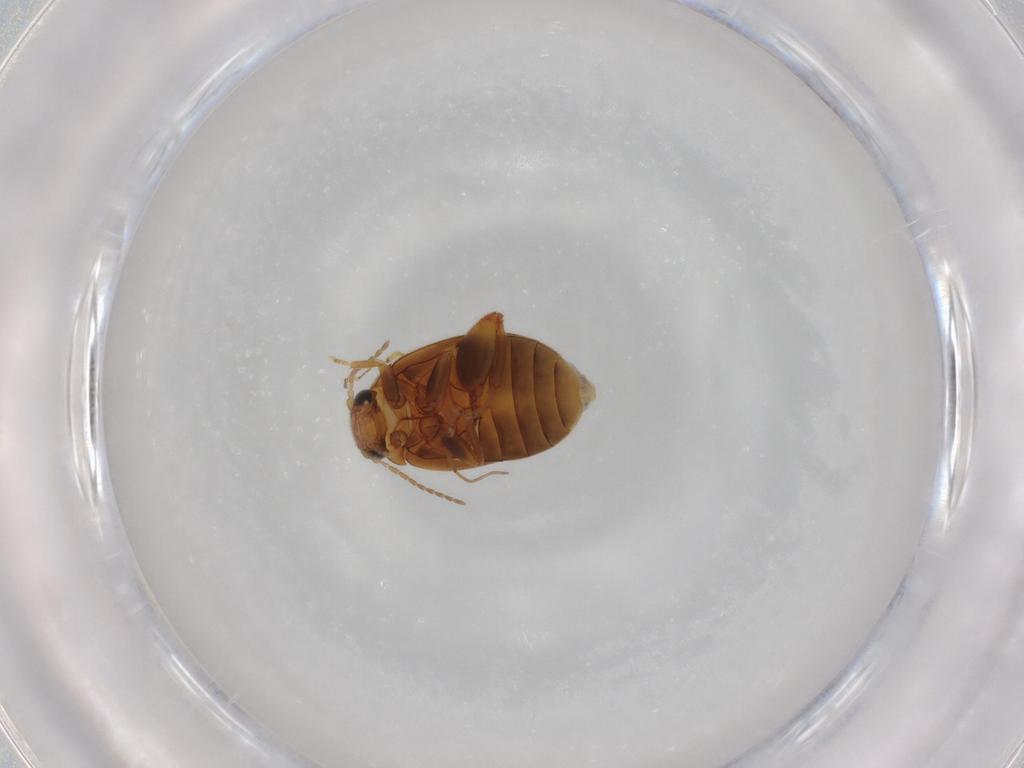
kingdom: Animalia
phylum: Arthropoda
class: Insecta
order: Coleoptera
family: Scirtidae
